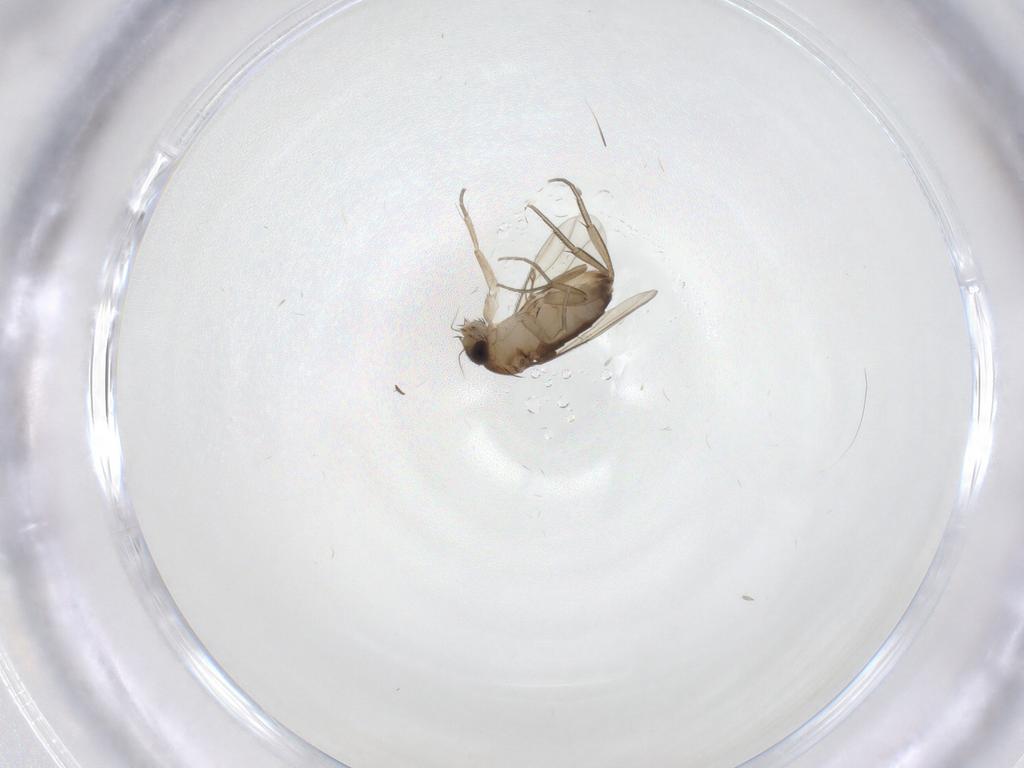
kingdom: Animalia
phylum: Arthropoda
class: Insecta
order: Diptera
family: Phoridae
